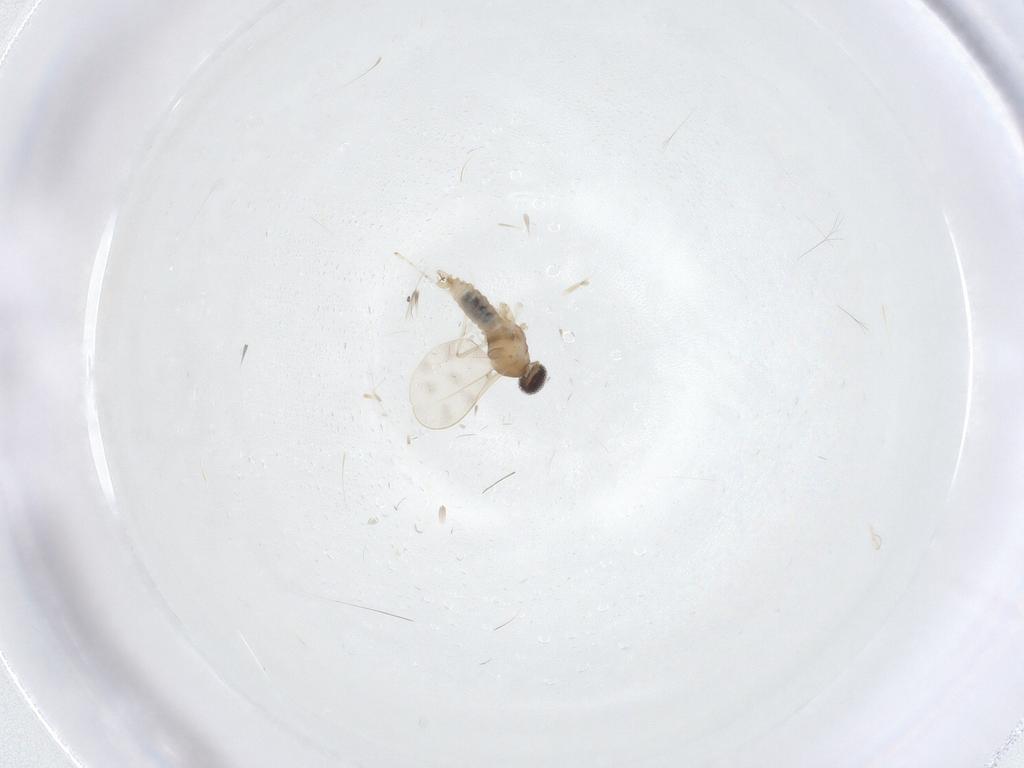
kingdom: Animalia
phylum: Arthropoda
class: Insecta
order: Diptera
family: Cecidomyiidae
